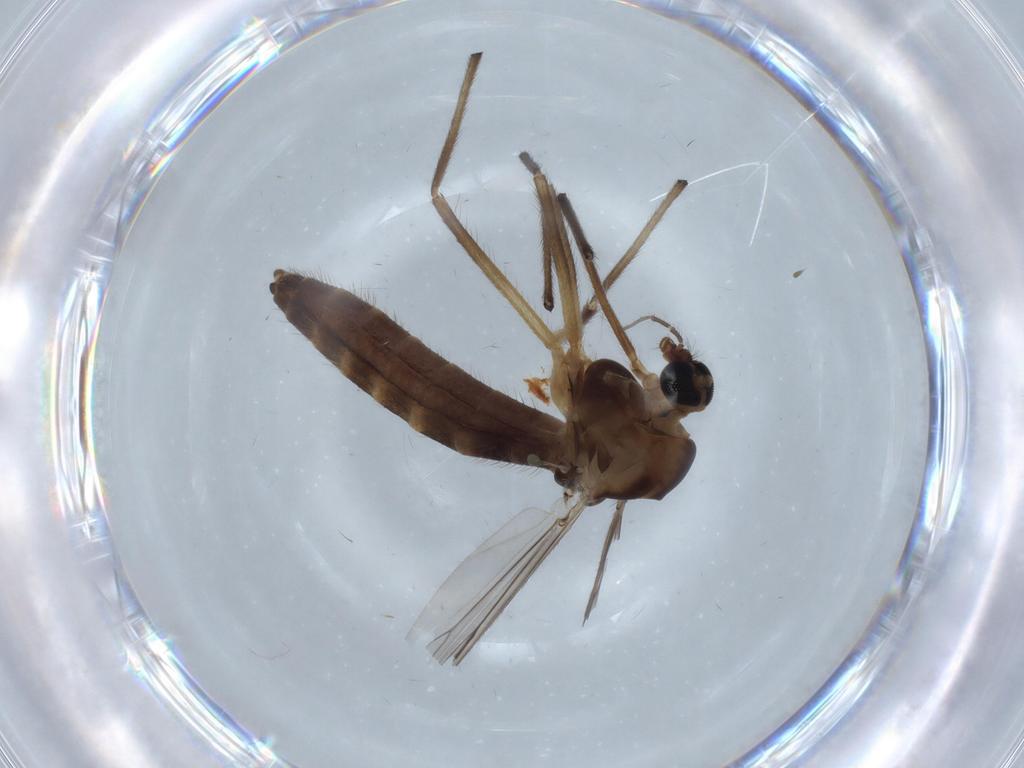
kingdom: Animalia
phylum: Arthropoda
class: Insecta
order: Diptera
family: Chironomidae
